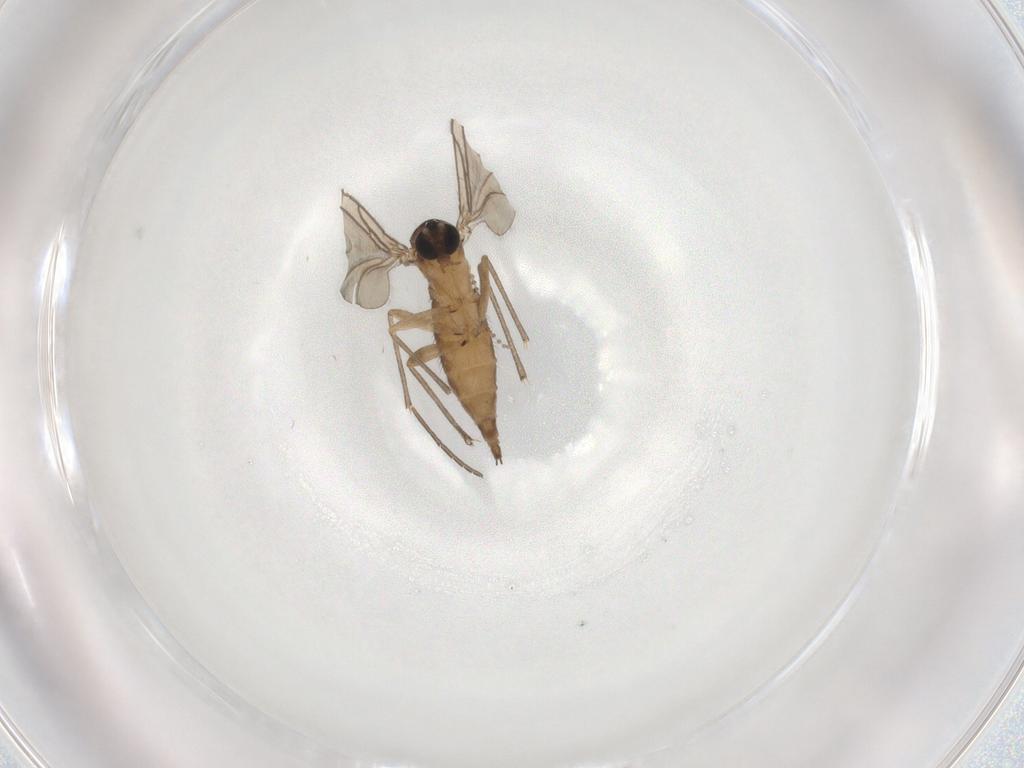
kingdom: Animalia
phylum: Arthropoda
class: Insecta
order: Diptera
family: Sciaridae
